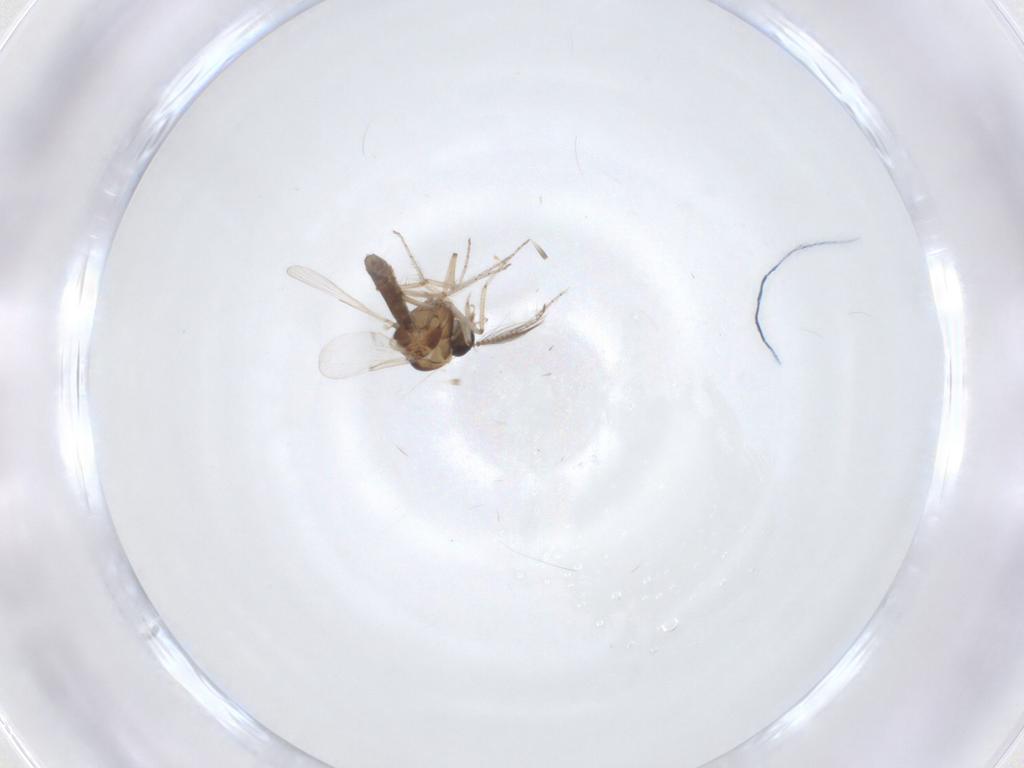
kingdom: Animalia
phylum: Arthropoda
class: Insecta
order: Diptera
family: Ceratopogonidae
